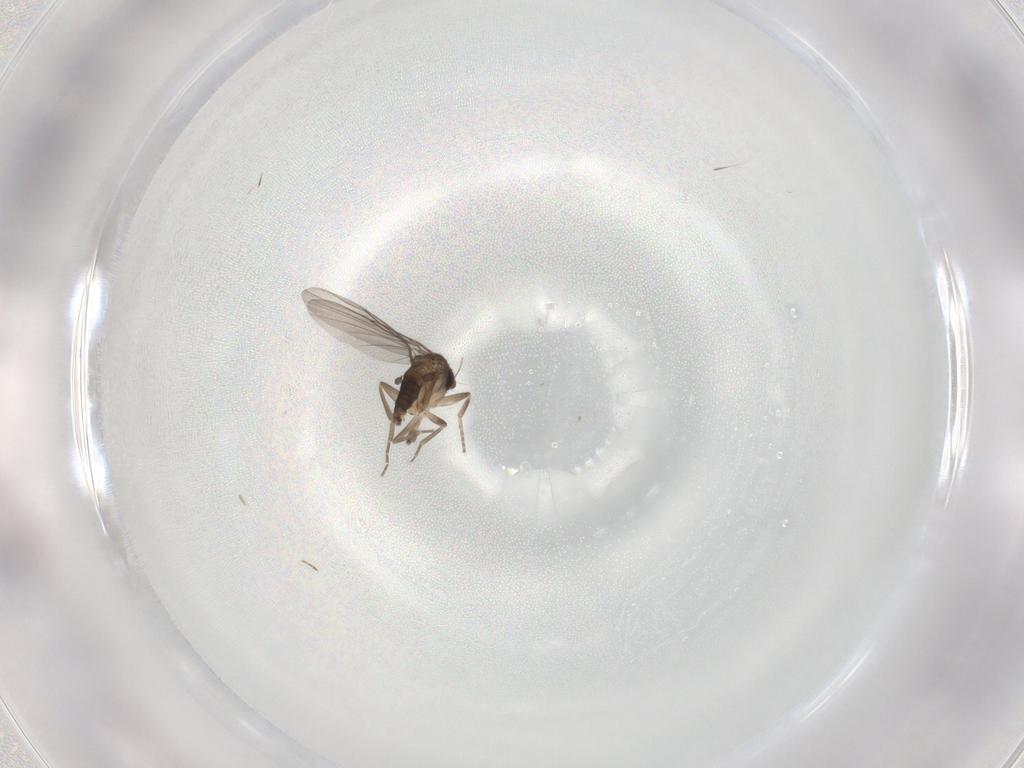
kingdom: Animalia
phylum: Arthropoda
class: Insecta
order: Diptera
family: Phoridae
